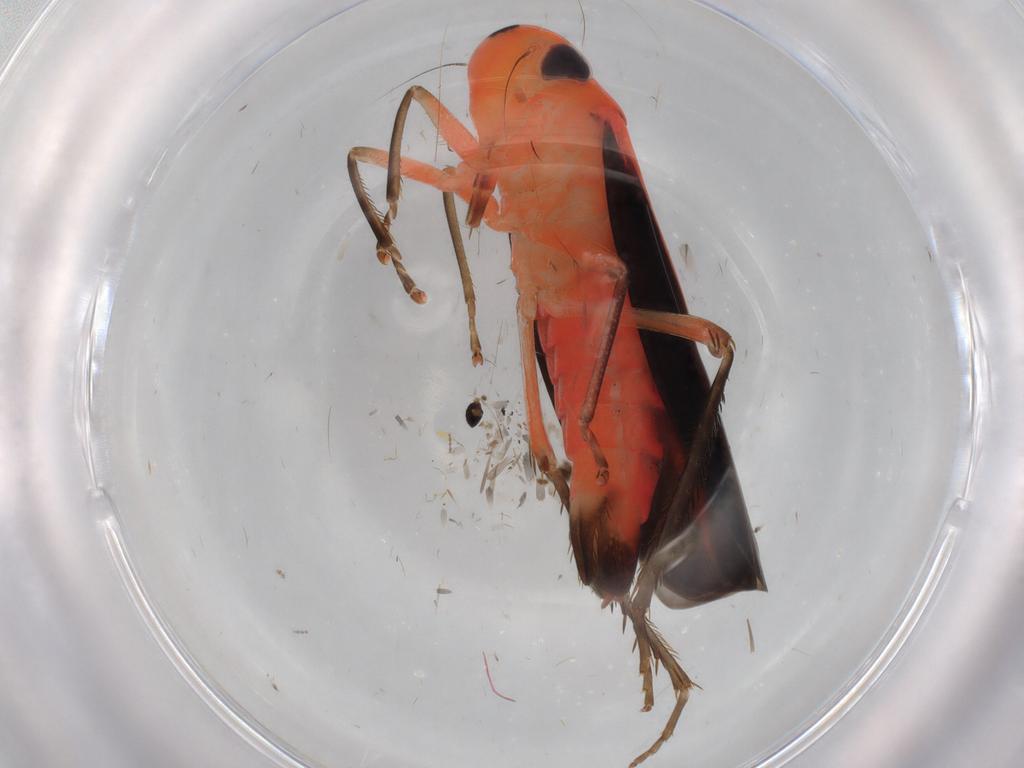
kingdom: Animalia
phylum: Arthropoda
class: Insecta
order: Hemiptera
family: Cicadellidae
